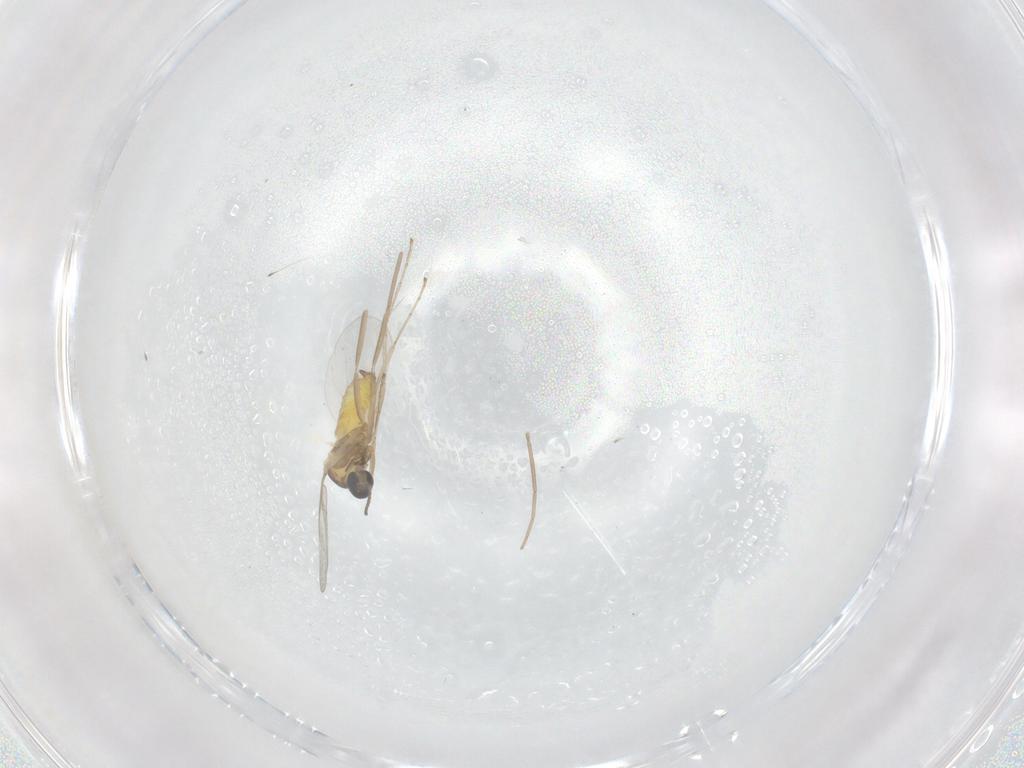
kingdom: Animalia
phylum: Arthropoda
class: Insecta
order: Diptera
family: Cecidomyiidae
